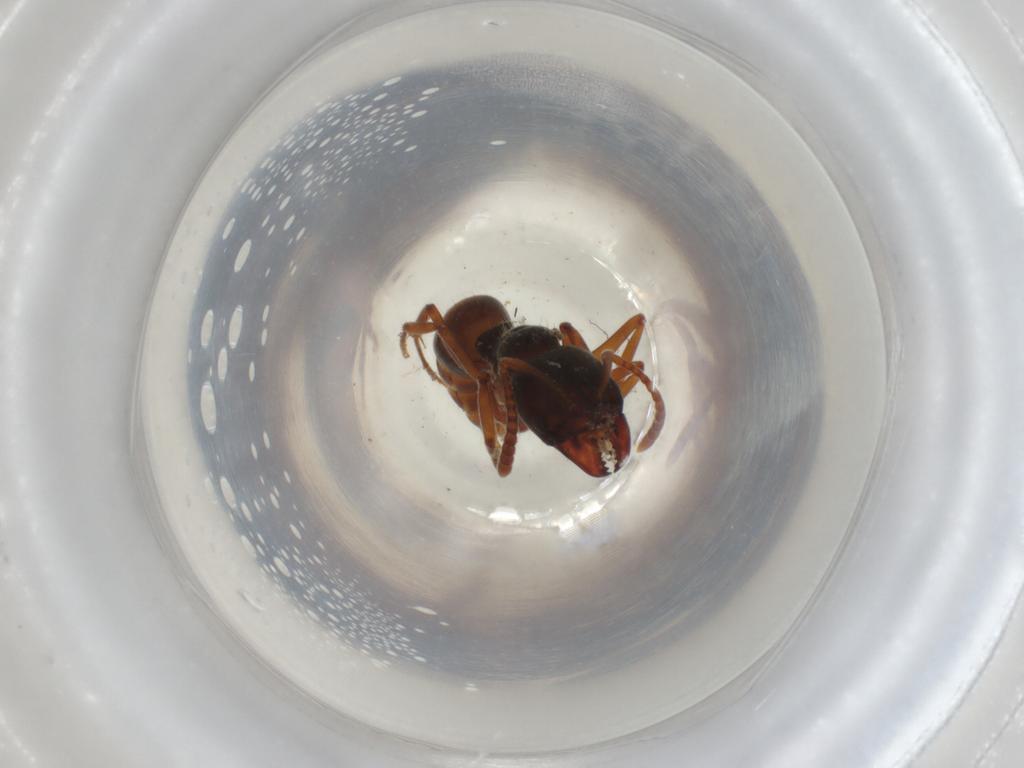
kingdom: Animalia
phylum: Arthropoda
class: Insecta
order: Hymenoptera
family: Formicidae
